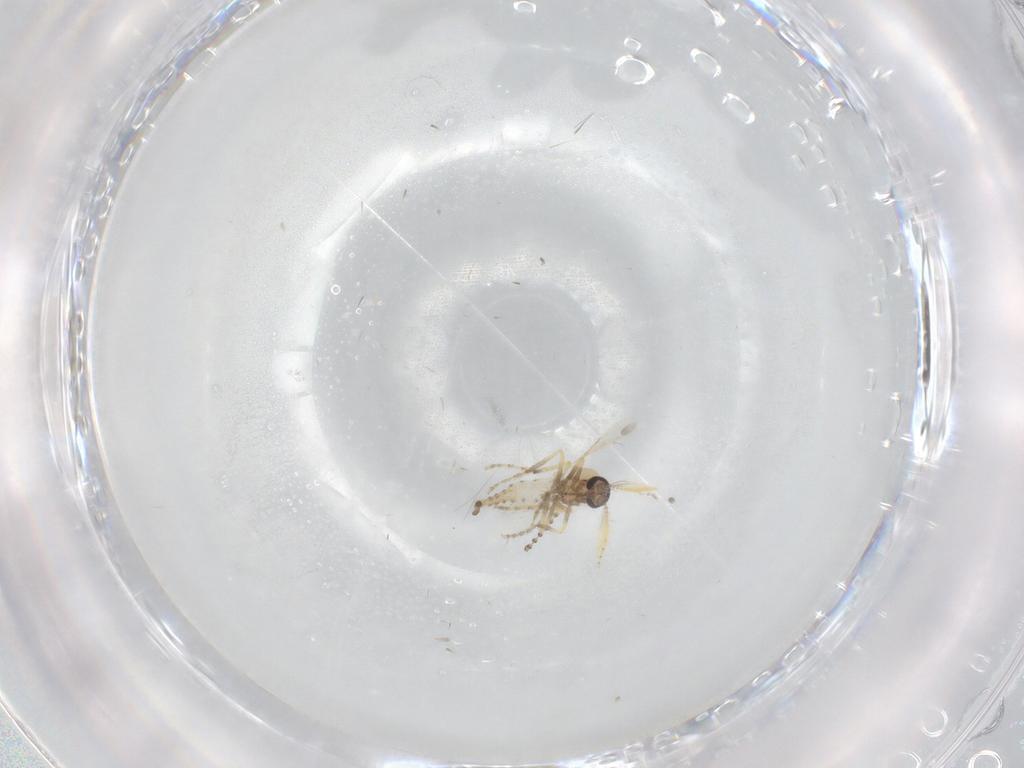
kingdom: Animalia
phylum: Arthropoda
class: Insecta
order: Diptera
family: Ceratopogonidae
